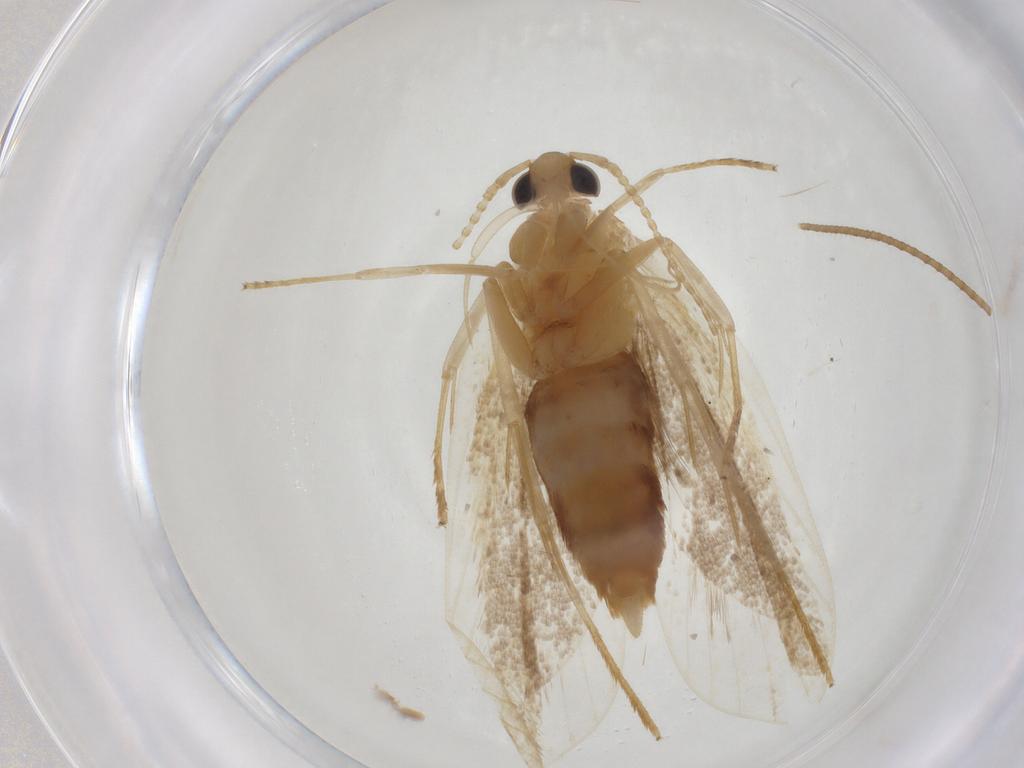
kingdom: Animalia
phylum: Arthropoda
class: Insecta
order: Lepidoptera
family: Lecithoceridae
